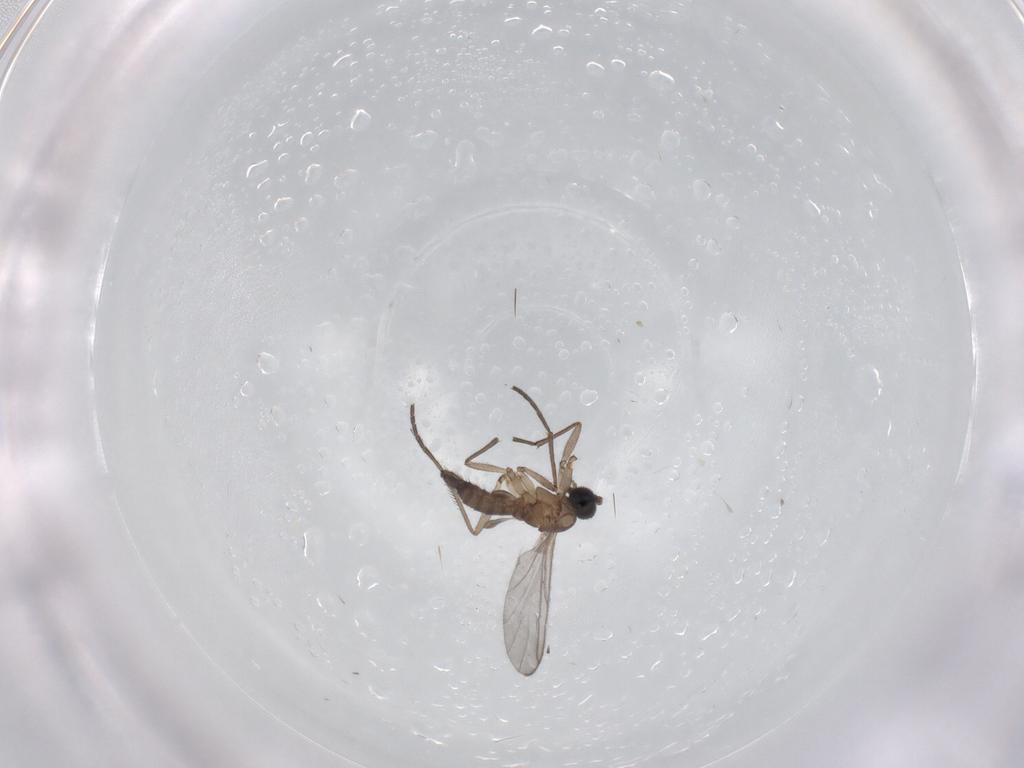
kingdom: Animalia
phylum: Arthropoda
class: Insecta
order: Diptera
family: Sciaridae
